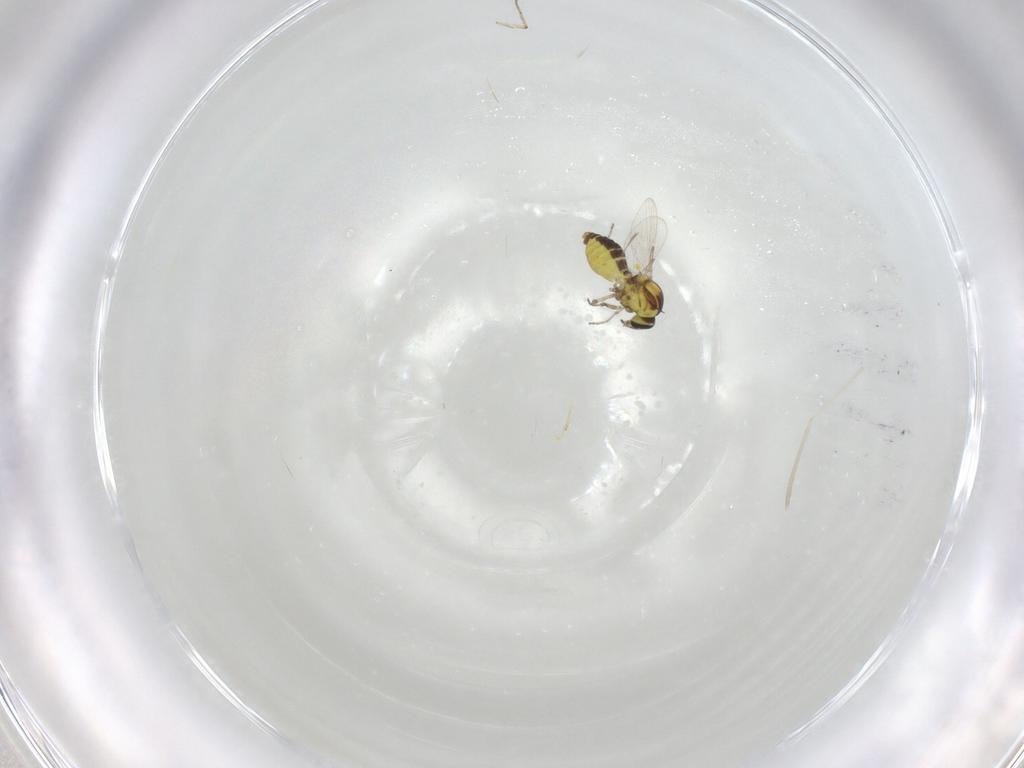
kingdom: Animalia
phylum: Arthropoda
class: Insecta
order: Diptera
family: Ceratopogonidae
